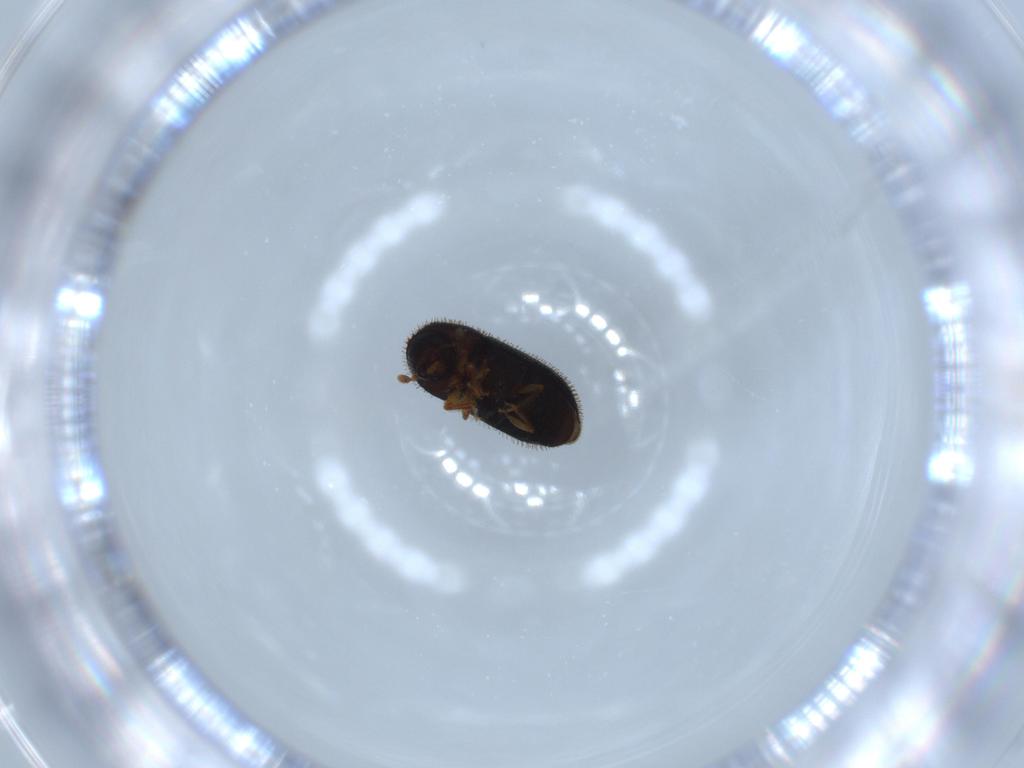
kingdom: Animalia
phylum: Arthropoda
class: Insecta
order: Coleoptera
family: Curculionidae
